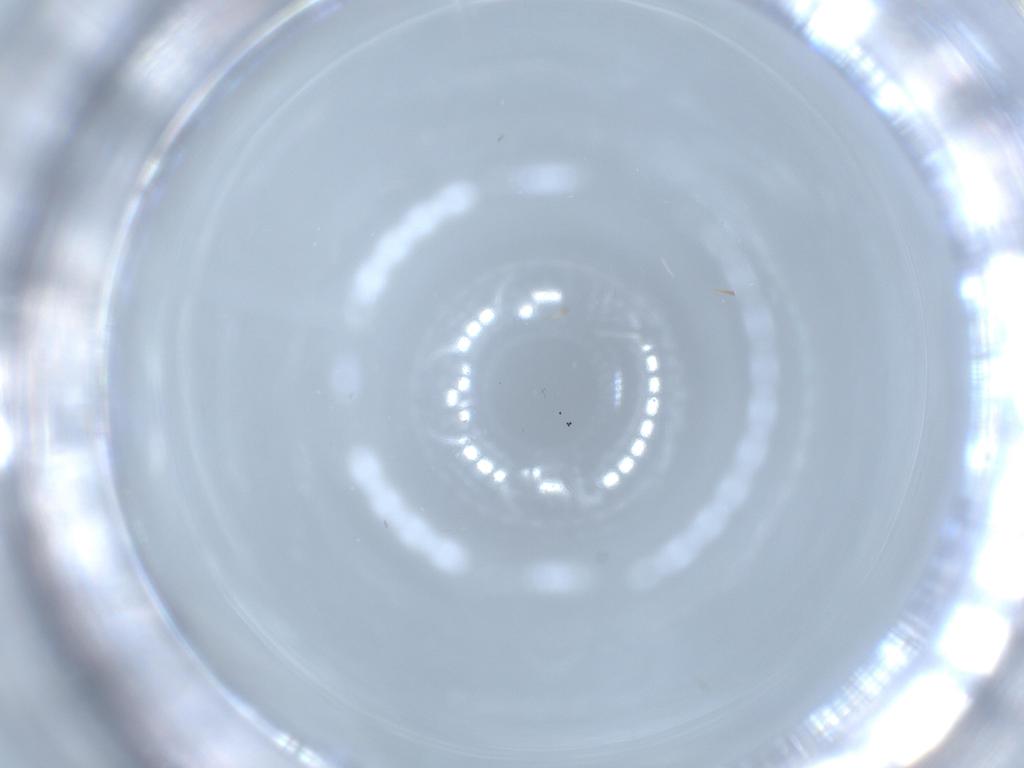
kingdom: Animalia
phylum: Arthropoda
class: Insecta
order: Diptera
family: Ceratopogonidae
